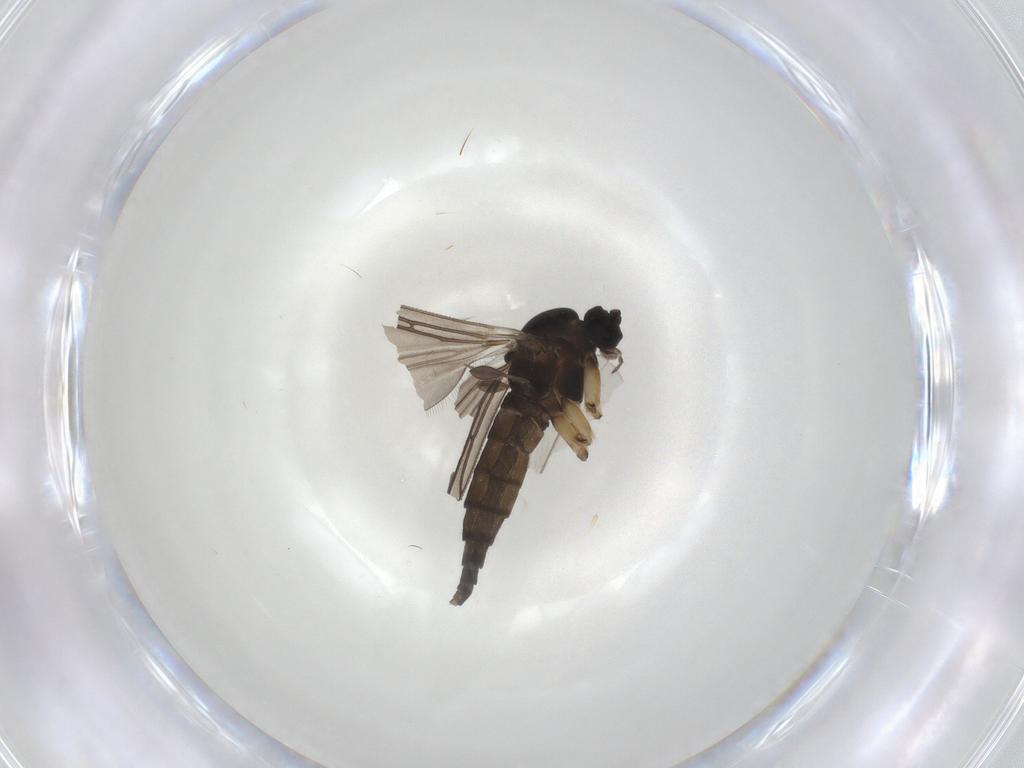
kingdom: Animalia
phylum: Arthropoda
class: Insecta
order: Diptera
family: Sciaridae
